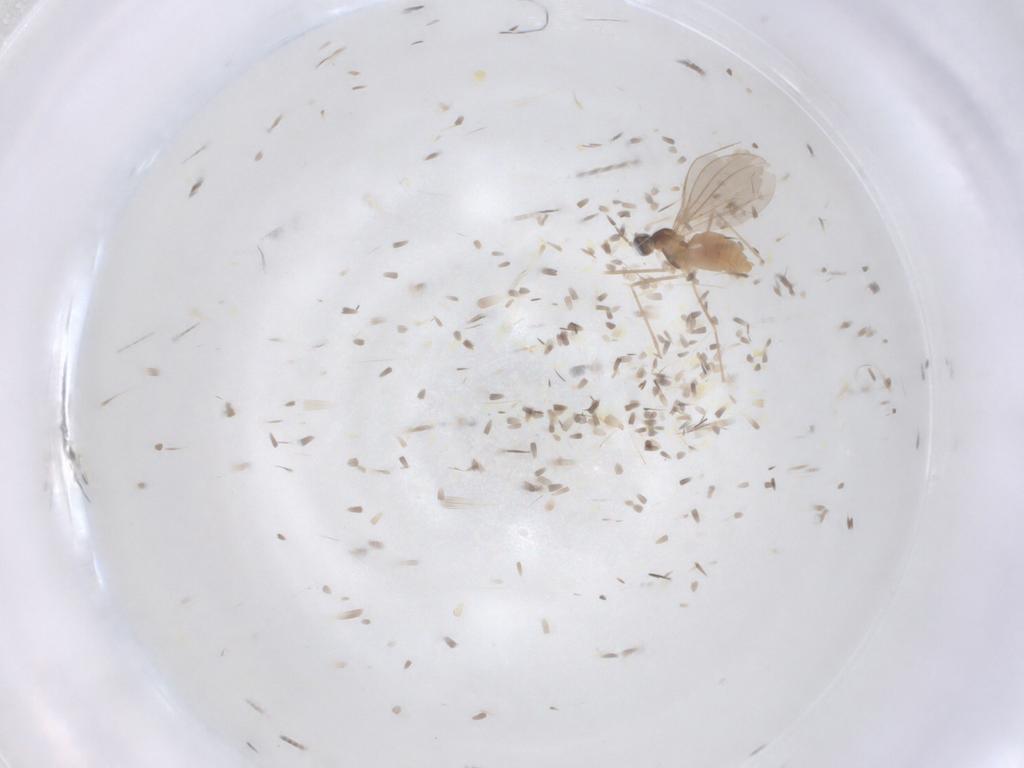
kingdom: Animalia
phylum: Arthropoda
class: Insecta
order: Diptera
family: Cecidomyiidae
